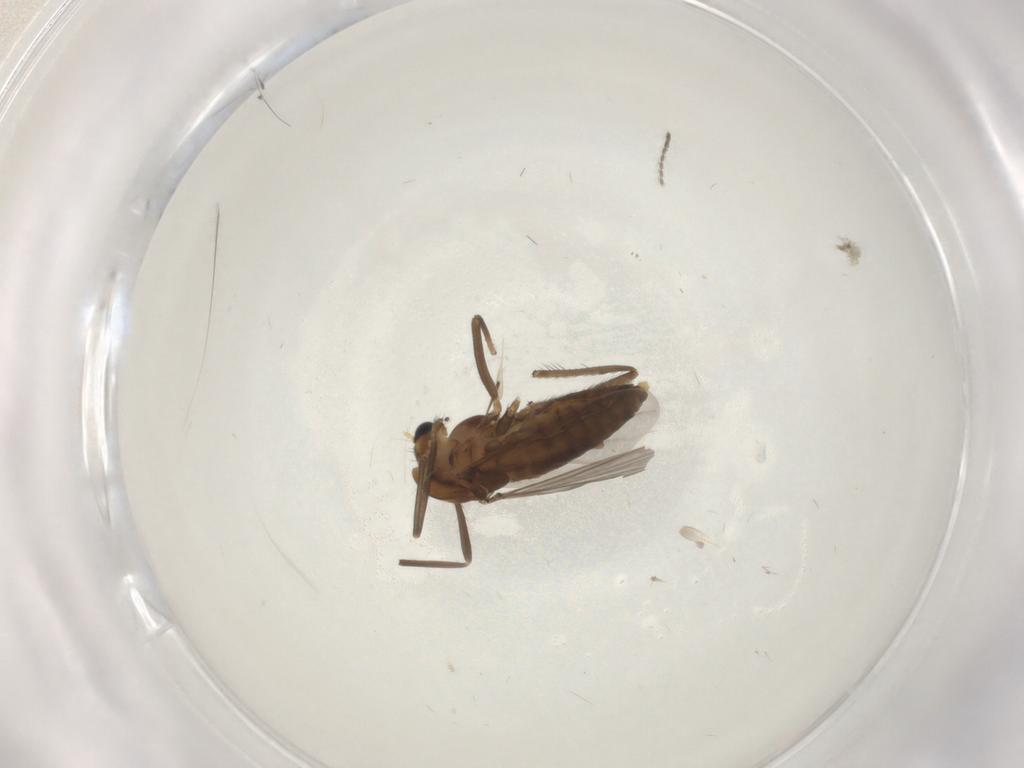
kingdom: Animalia
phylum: Arthropoda
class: Insecta
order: Diptera
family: Chironomidae
